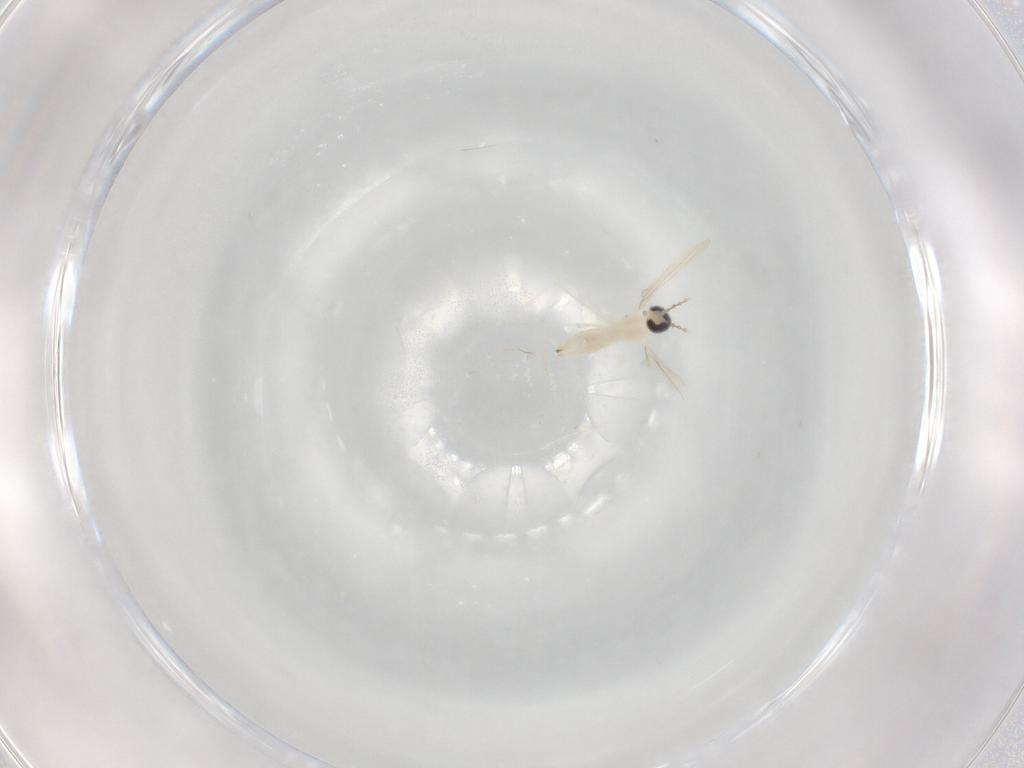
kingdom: Animalia
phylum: Arthropoda
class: Insecta
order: Diptera
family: Cecidomyiidae
